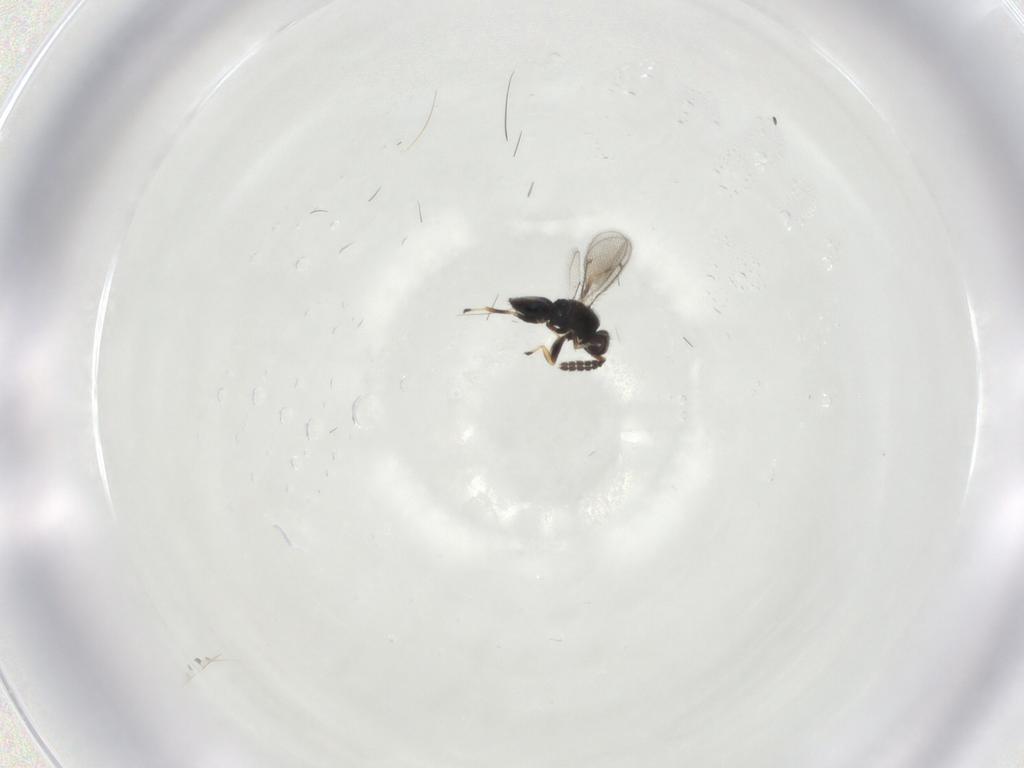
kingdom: Animalia
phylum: Arthropoda
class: Insecta
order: Hymenoptera
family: Eulophidae
